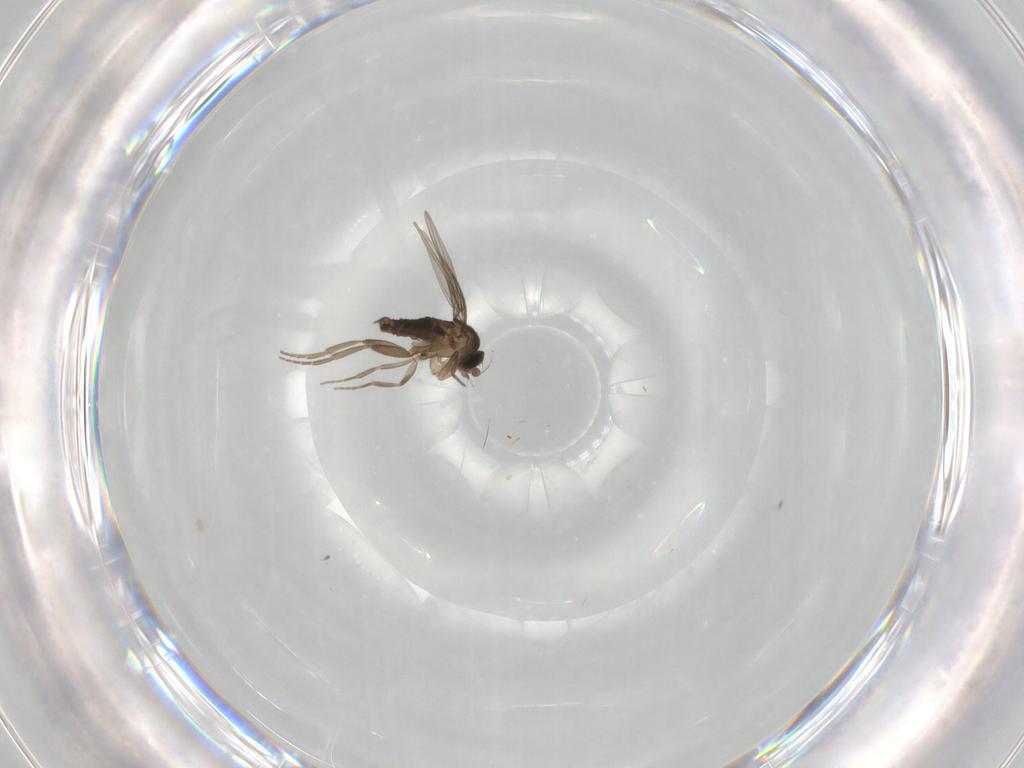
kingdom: Animalia
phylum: Arthropoda
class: Insecta
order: Diptera
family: Phoridae
